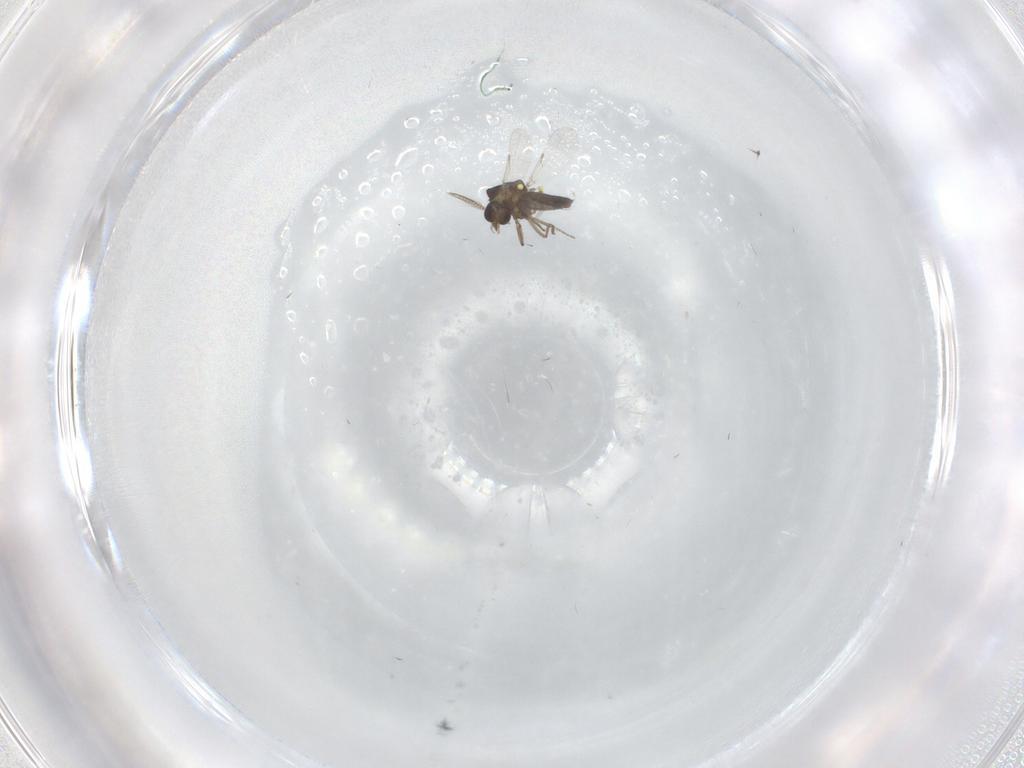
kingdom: Animalia
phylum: Arthropoda
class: Insecta
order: Diptera
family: Ceratopogonidae
